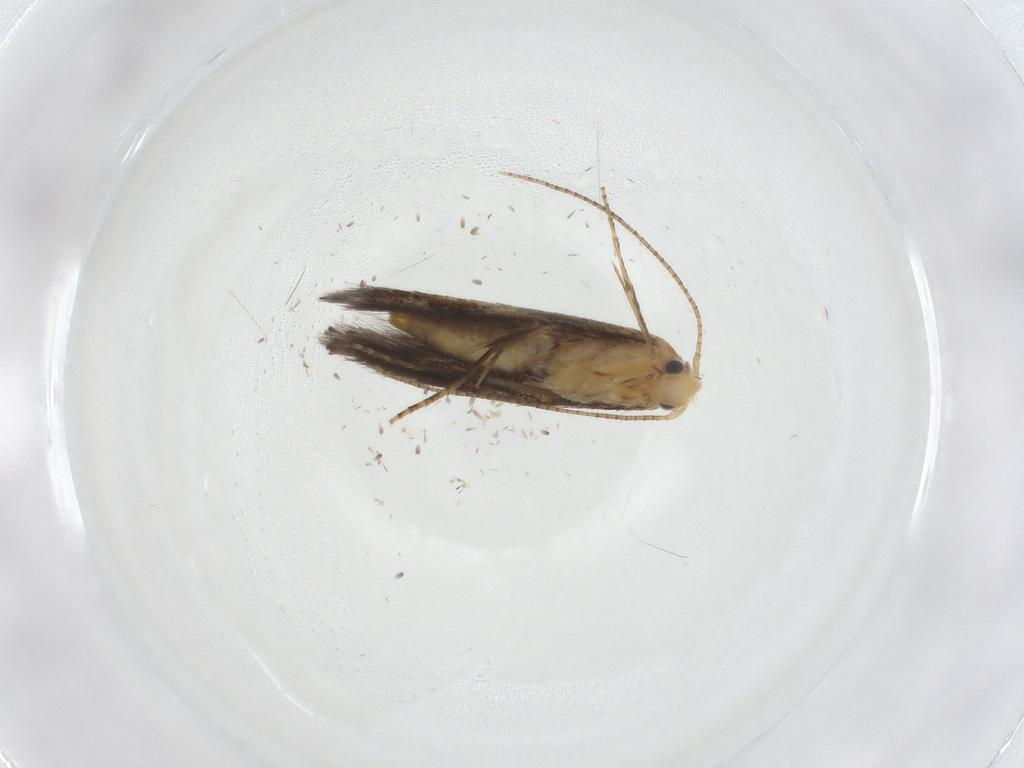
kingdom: Animalia
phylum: Arthropoda
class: Insecta
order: Lepidoptera
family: Bucculatricidae
